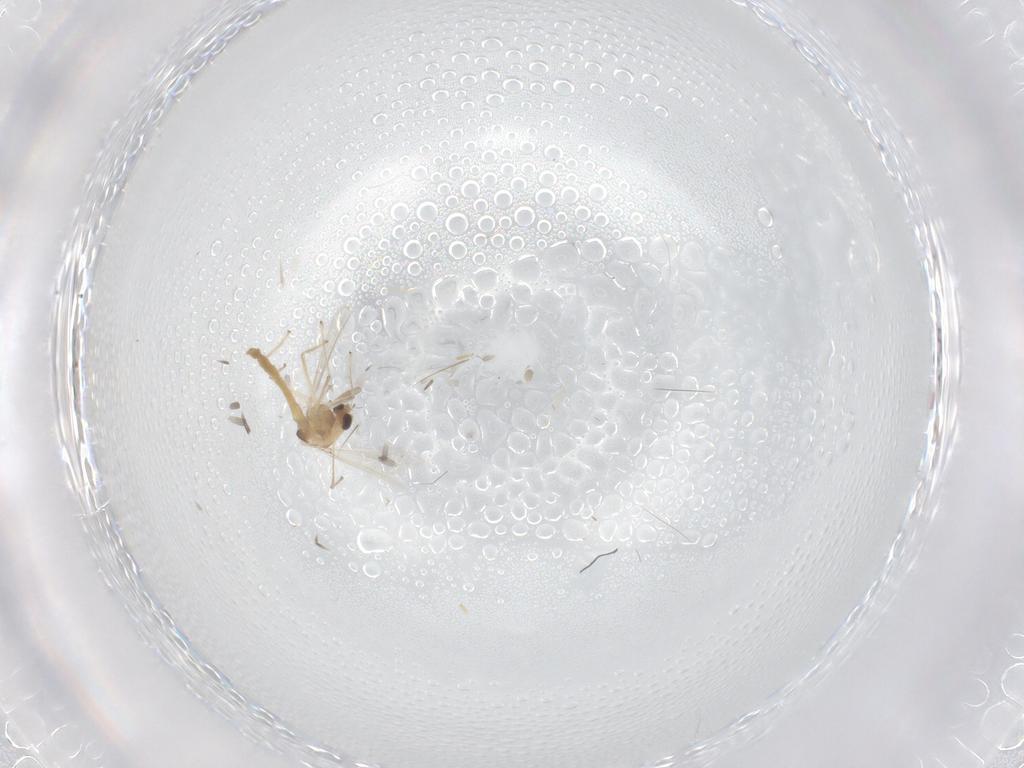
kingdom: Animalia
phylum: Arthropoda
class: Insecta
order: Diptera
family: Chironomidae
